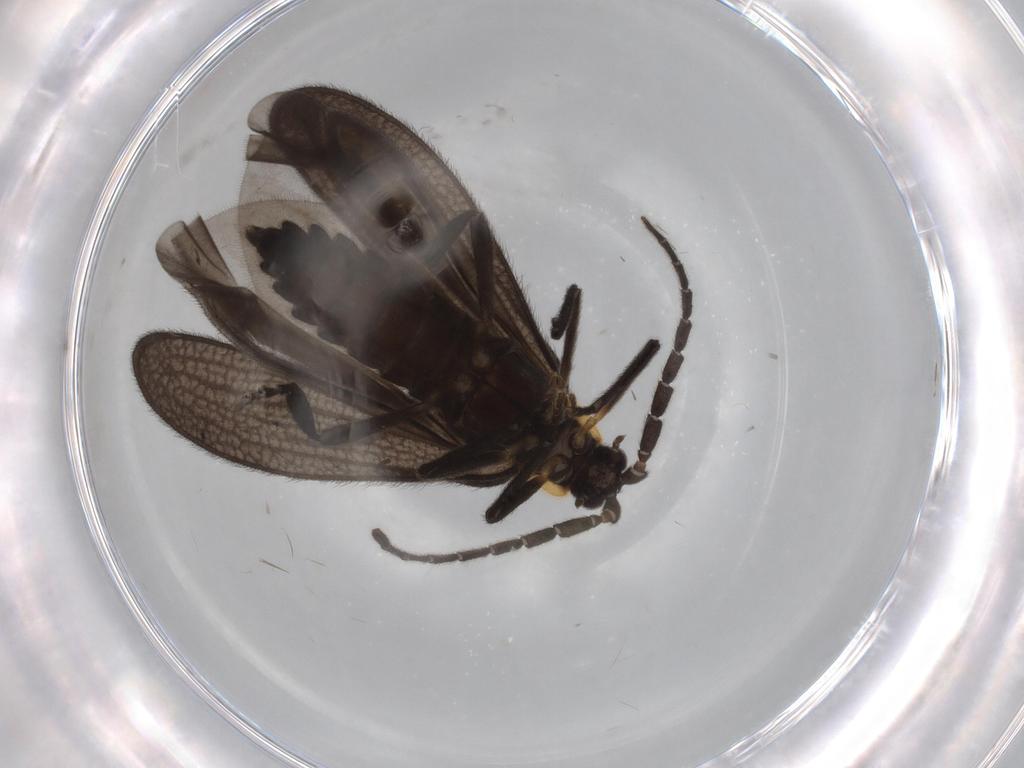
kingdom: Animalia
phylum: Arthropoda
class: Insecta
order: Coleoptera
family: Lycidae
